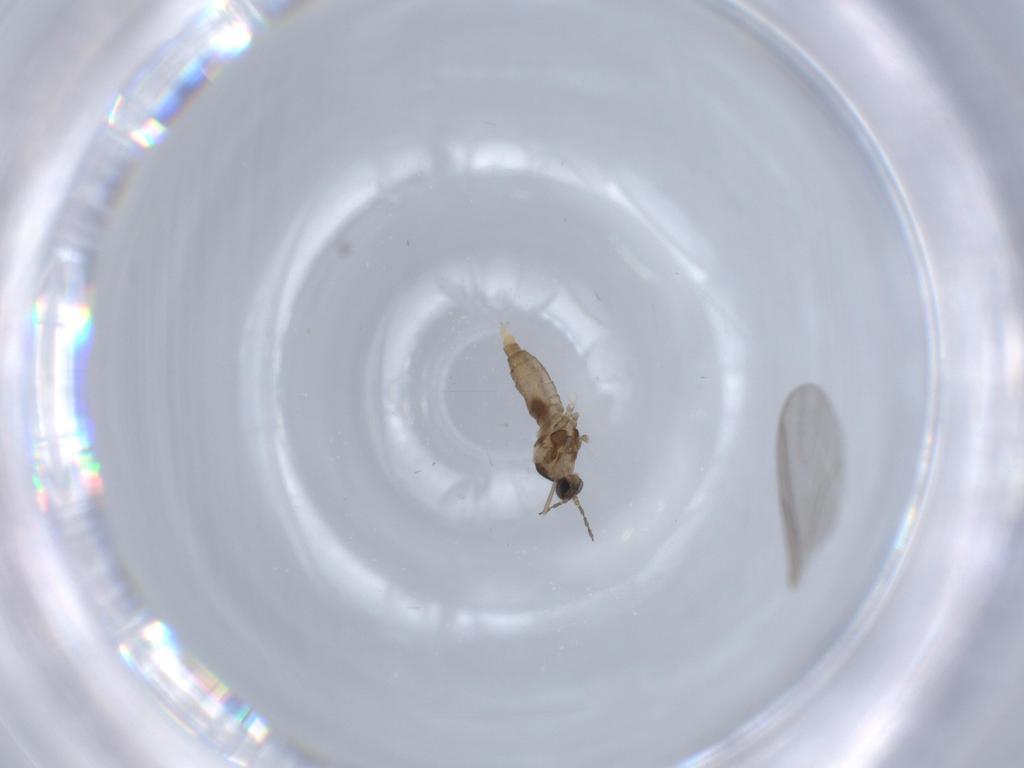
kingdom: Animalia
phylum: Arthropoda
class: Insecta
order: Diptera
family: Cecidomyiidae
